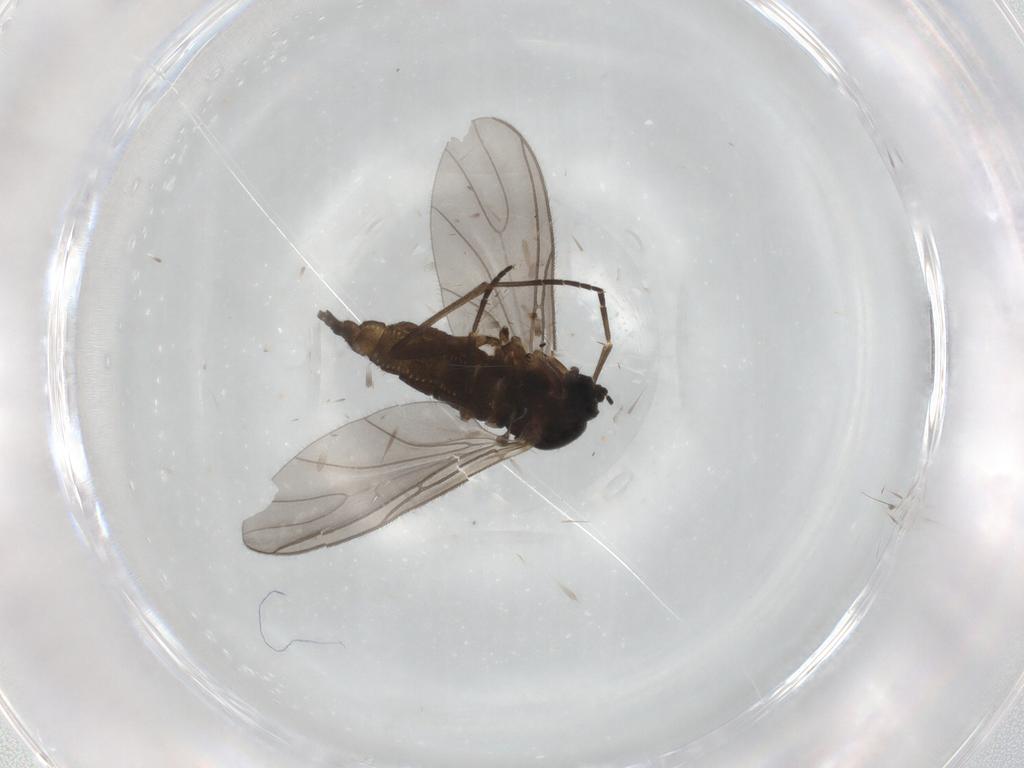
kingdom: Animalia
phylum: Arthropoda
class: Insecta
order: Diptera
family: Sciaridae
